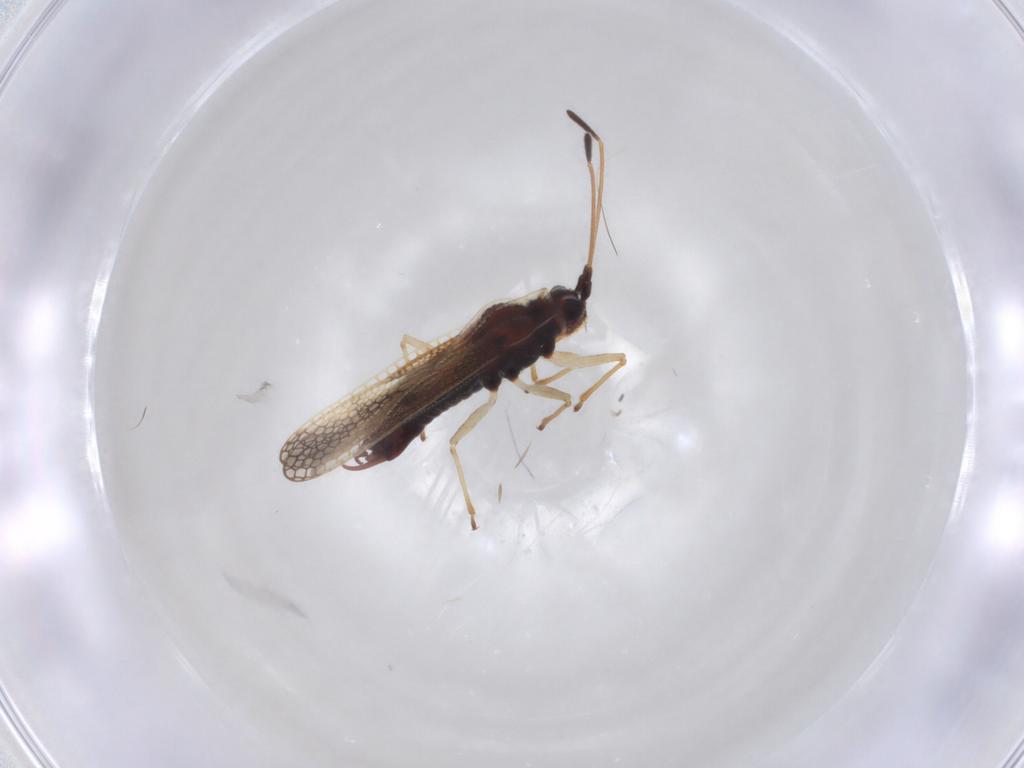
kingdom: Animalia
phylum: Arthropoda
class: Insecta
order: Hemiptera
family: Tingidae
